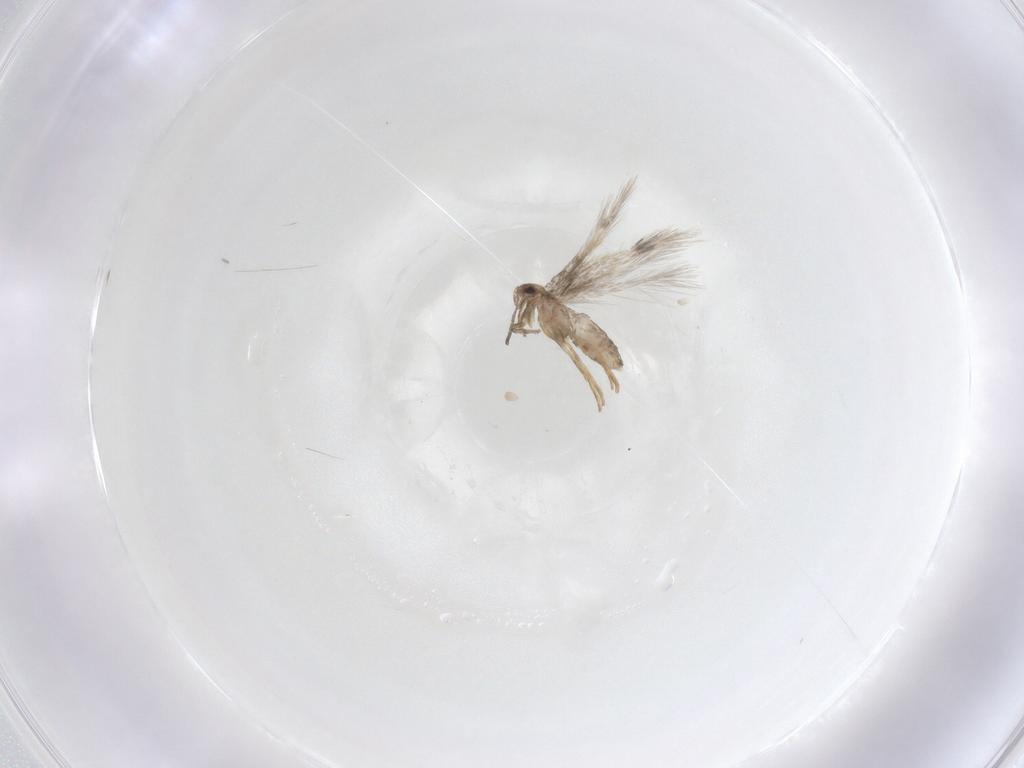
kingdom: Animalia
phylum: Arthropoda
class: Insecta
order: Lepidoptera
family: Nepticulidae
